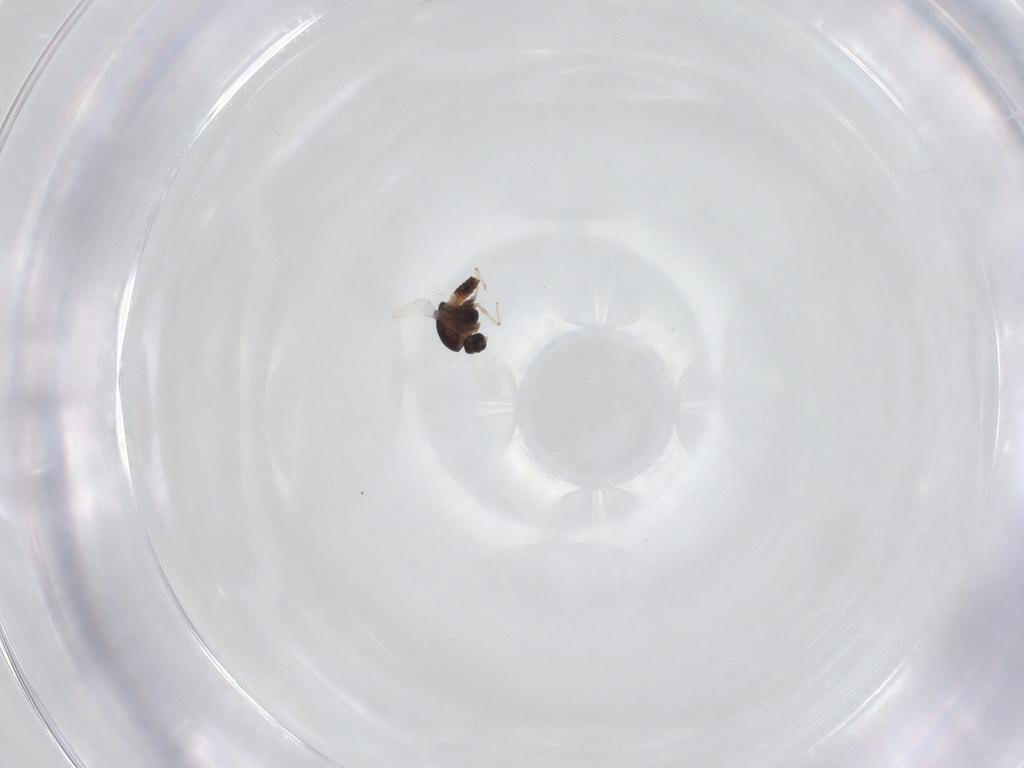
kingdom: Animalia
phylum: Arthropoda
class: Insecta
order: Diptera
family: Chironomidae
